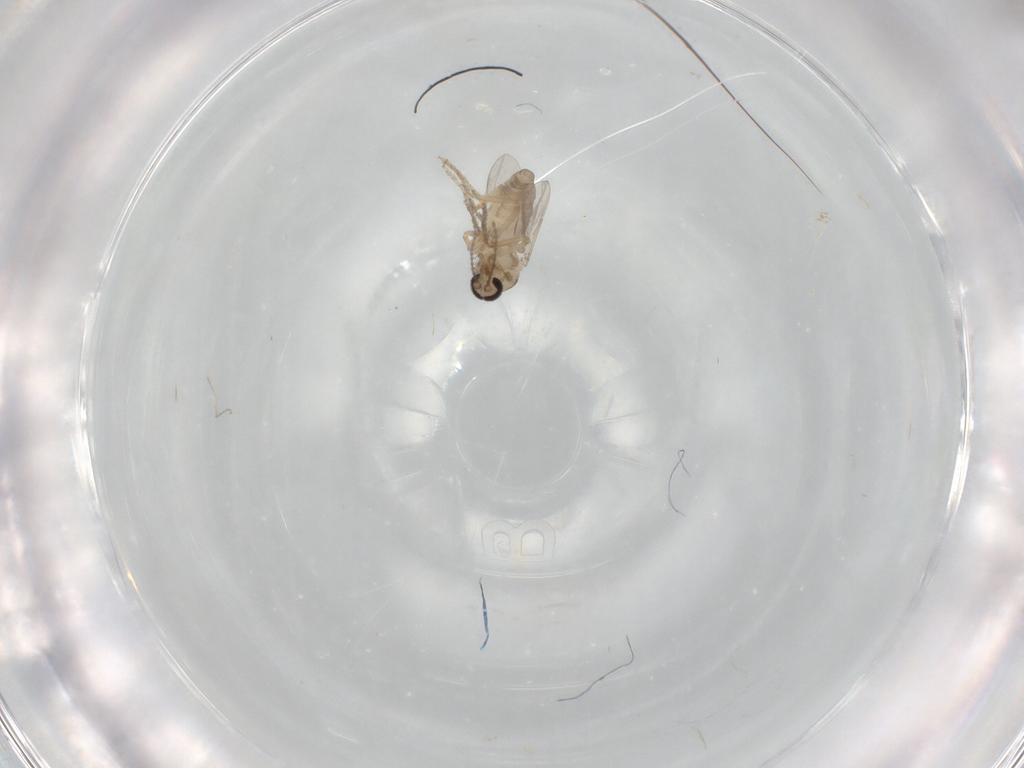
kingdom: Animalia
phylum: Arthropoda
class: Insecta
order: Diptera
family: Ceratopogonidae
